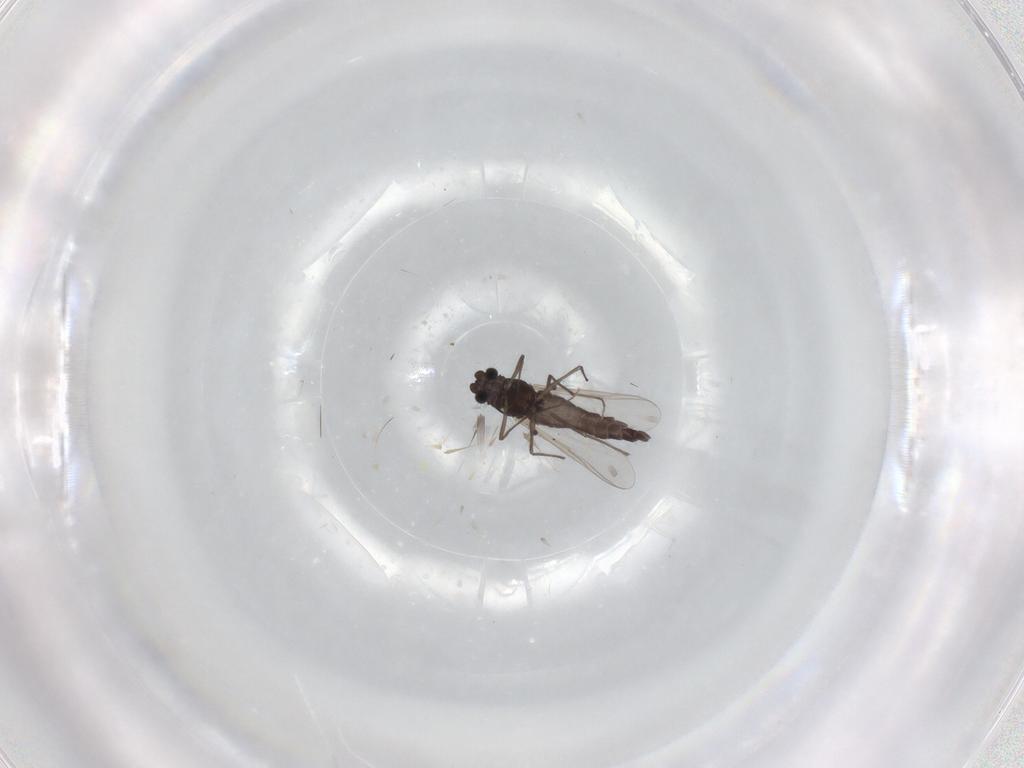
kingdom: Animalia
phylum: Arthropoda
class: Insecta
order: Diptera
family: Chironomidae
